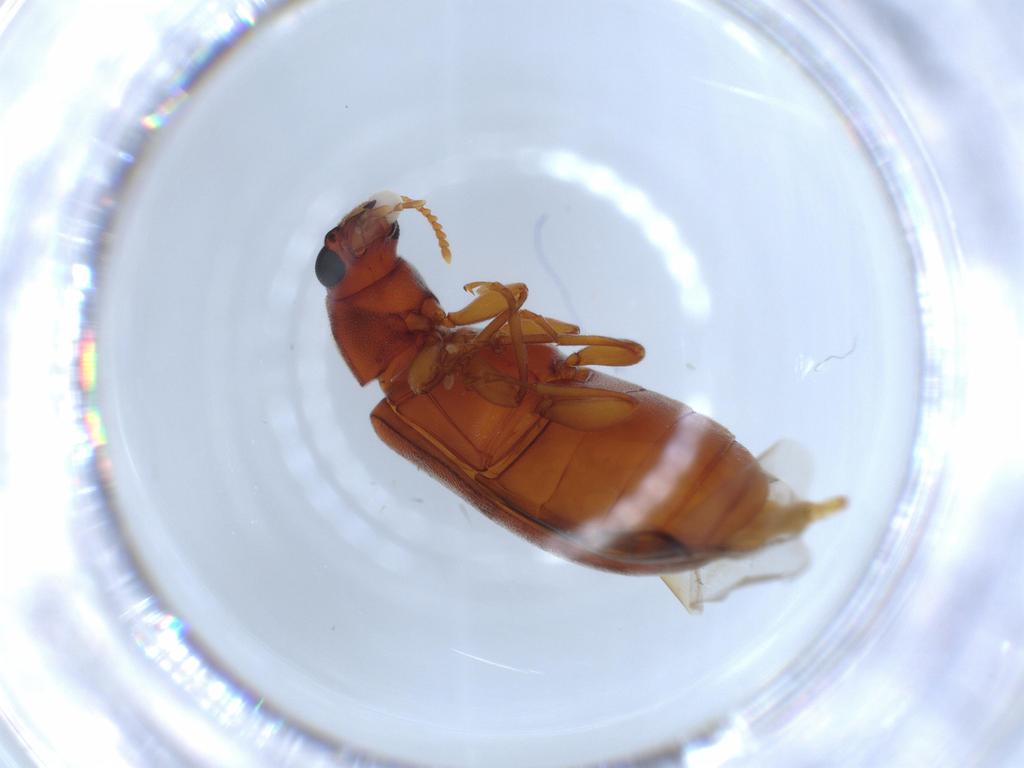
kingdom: Animalia
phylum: Arthropoda
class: Insecta
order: Coleoptera
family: Mycteridae
